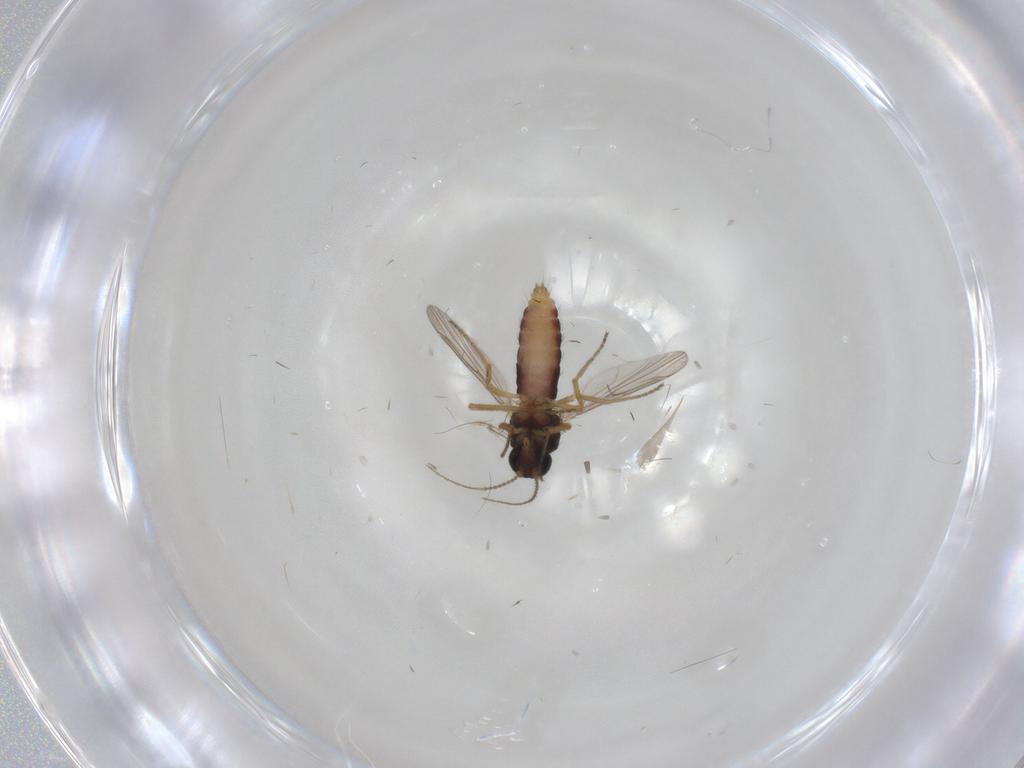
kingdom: Animalia
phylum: Arthropoda
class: Insecta
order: Diptera
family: Ceratopogonidae
